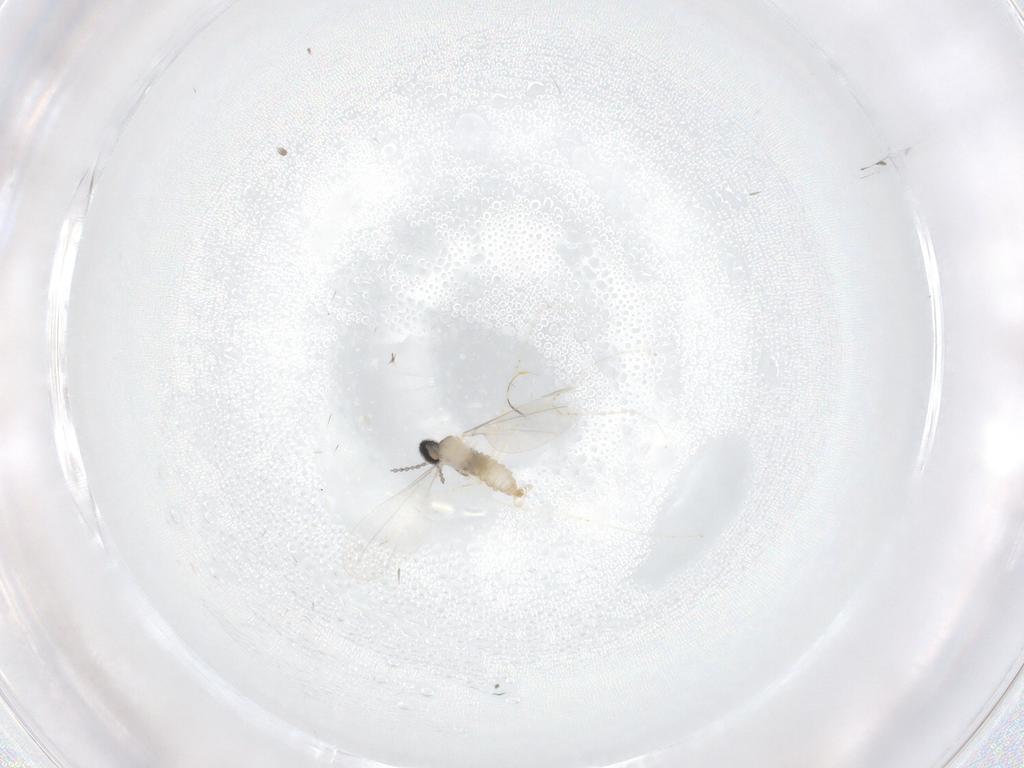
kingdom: Animalia
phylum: Arthropoda
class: Insecta
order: Diptera
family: Cecidomyiidae
